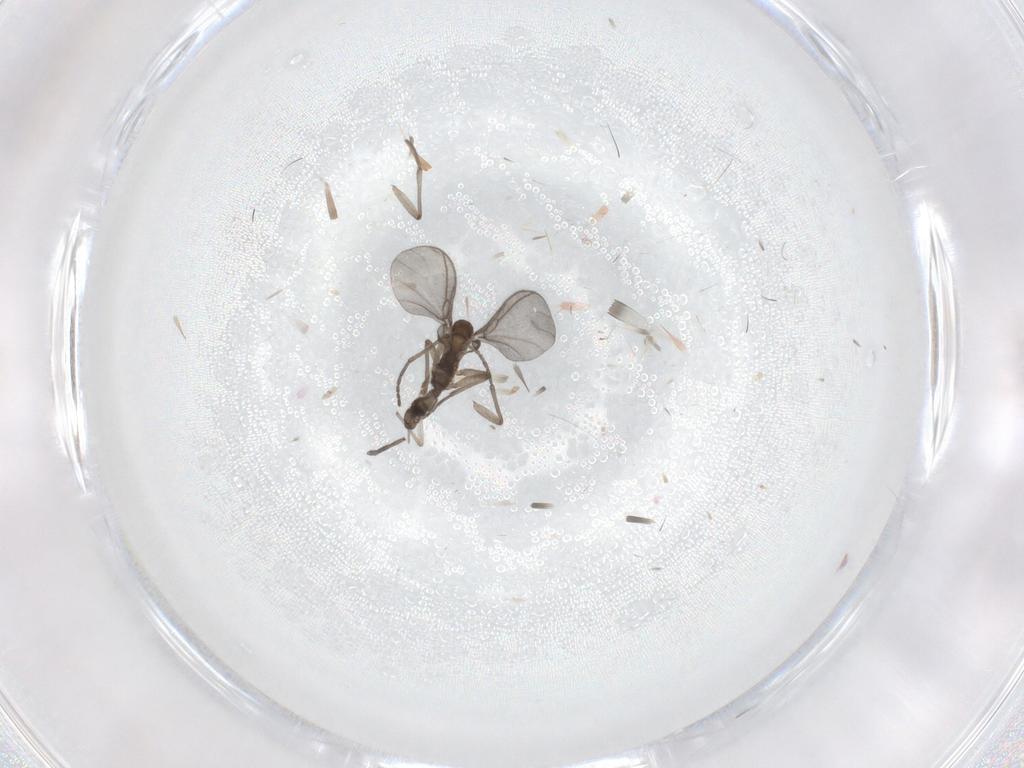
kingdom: Animalia
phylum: Arthropoda
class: Insecta
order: Diptera
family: Sciaridae
